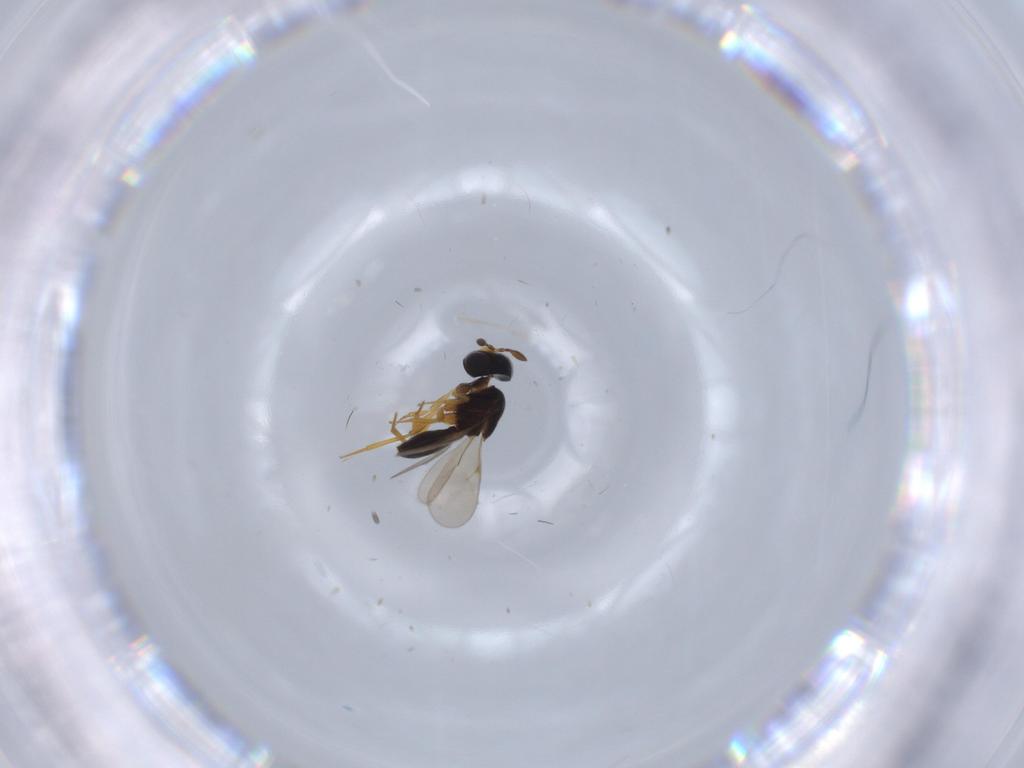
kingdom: Animalia
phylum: Arthropoda
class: Insecta
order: Hymenoptera
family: Scelionidae
